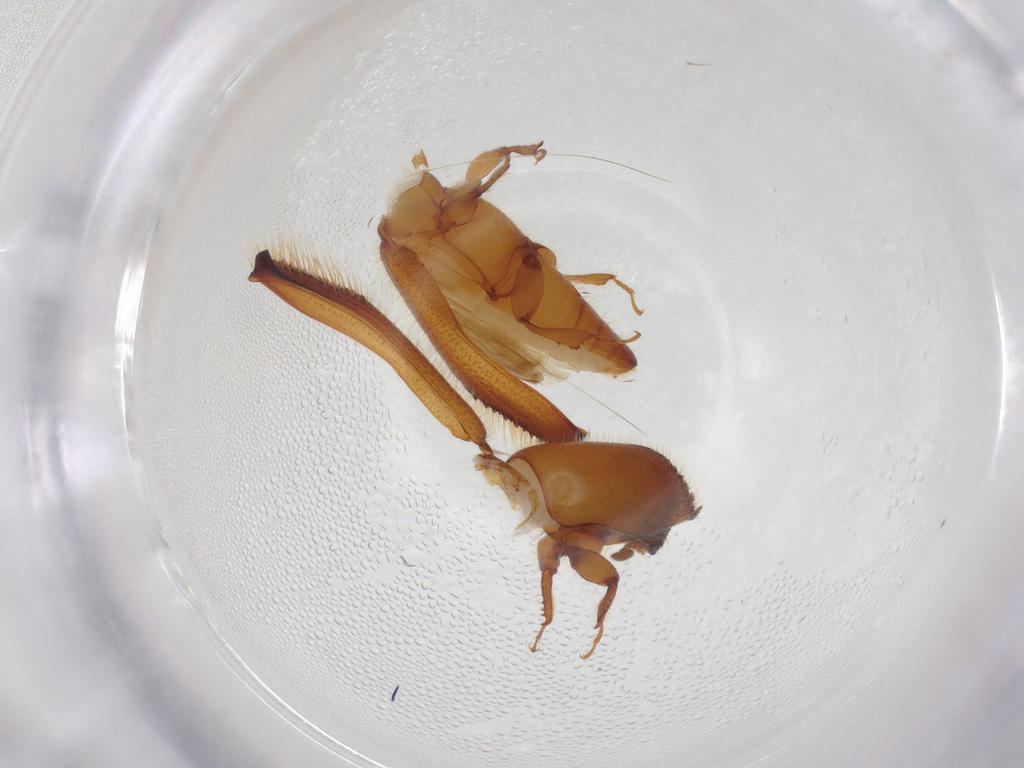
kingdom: Animalia
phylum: Arthropoda
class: Insecta
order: Coleoptera
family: Curculionidae
